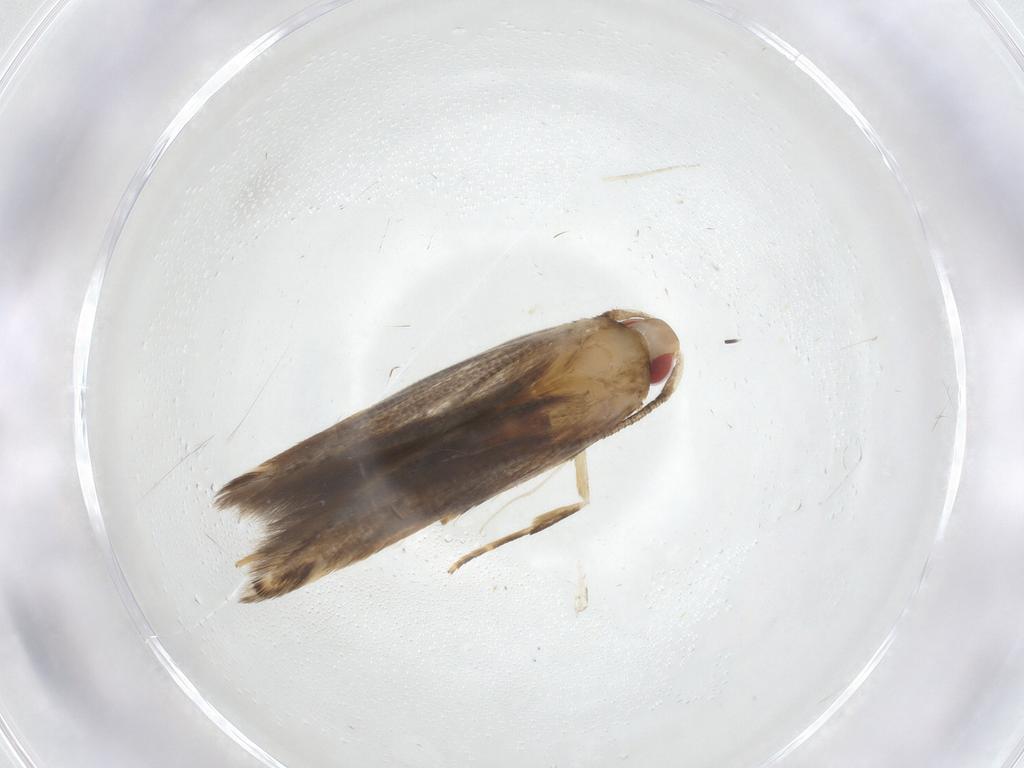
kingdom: Animalia
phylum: Arthropoda
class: Insecta
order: Lepidoptera
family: Cosmopterigidae
